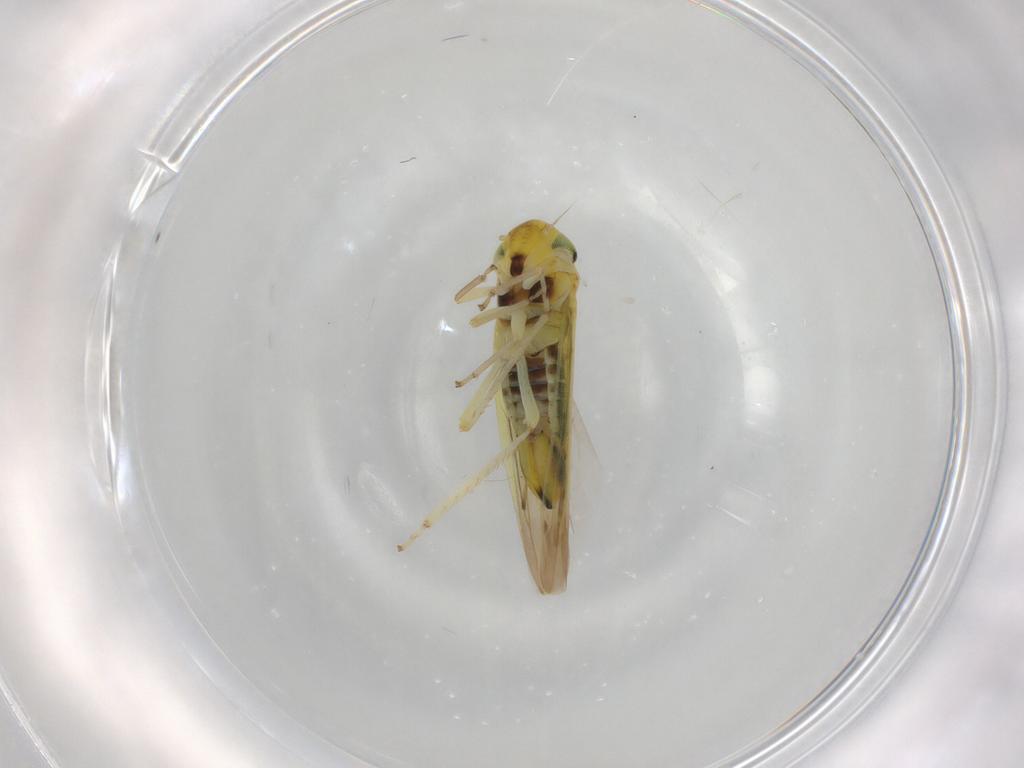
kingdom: Animalia
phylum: Arthropoda
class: Insecta
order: Hemiptera
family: Cicadellidae
